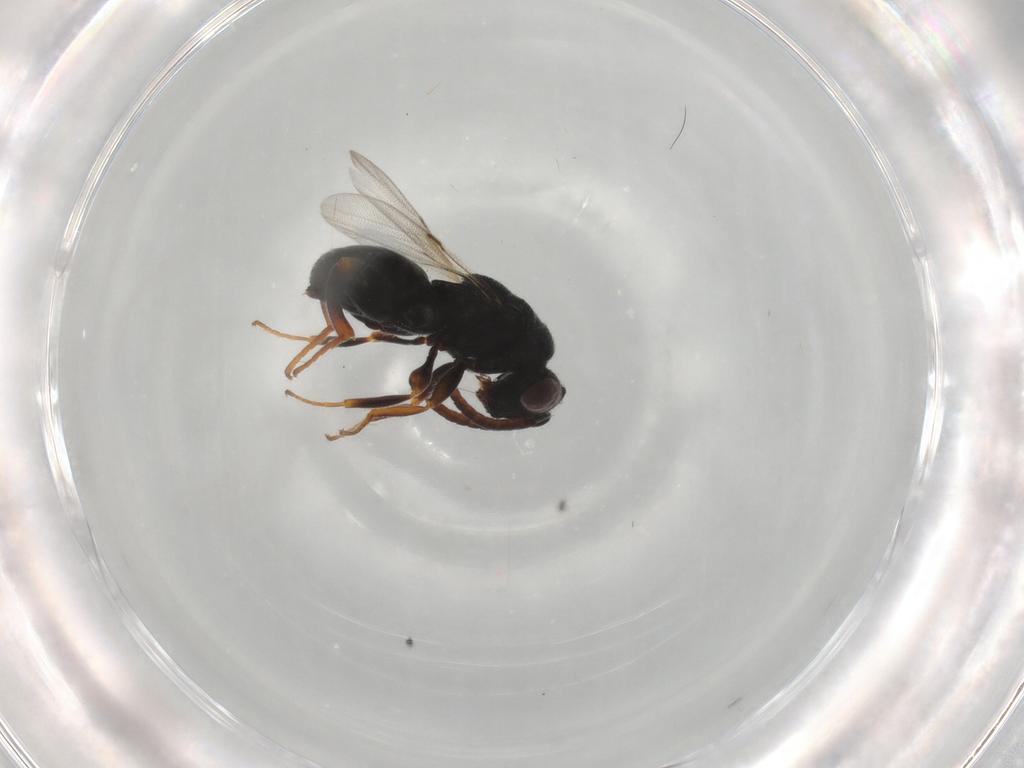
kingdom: Animalia
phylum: Arthropoda
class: Insecta
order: Hymenoptera
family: Chalcididae
